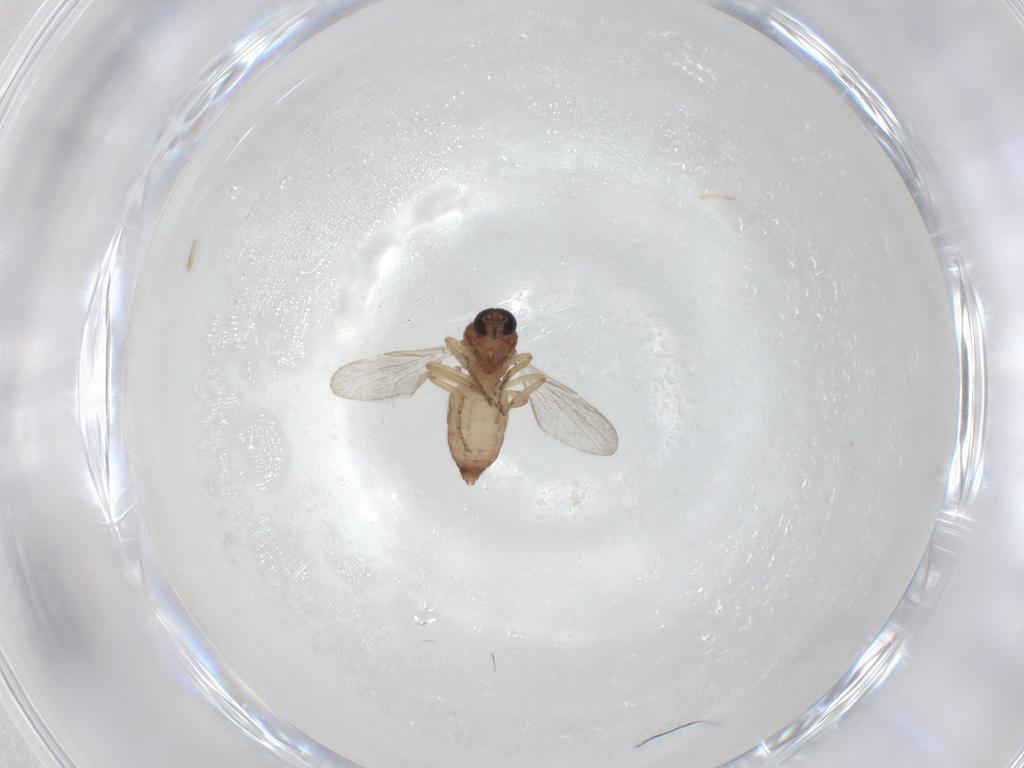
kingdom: Animalia
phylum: Arthropoda
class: Insecta
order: Diptera
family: Ceratopogonidae
